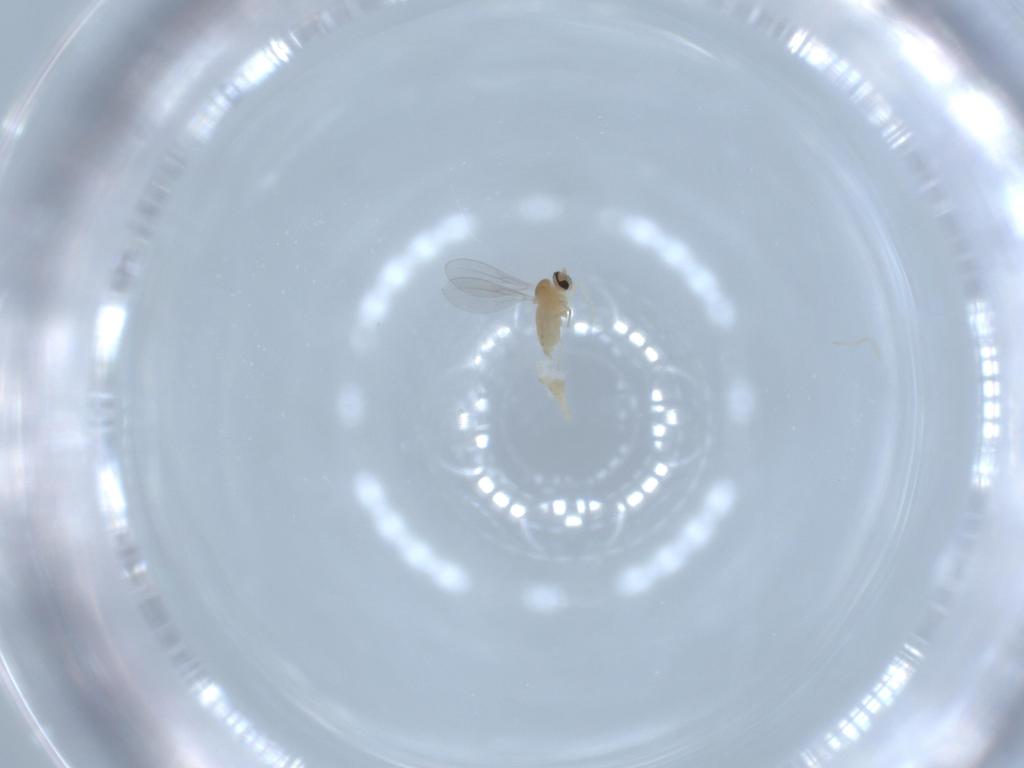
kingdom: Animalia
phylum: Arthropoda
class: Insecta
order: Diptera
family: Cecidomyiidae
